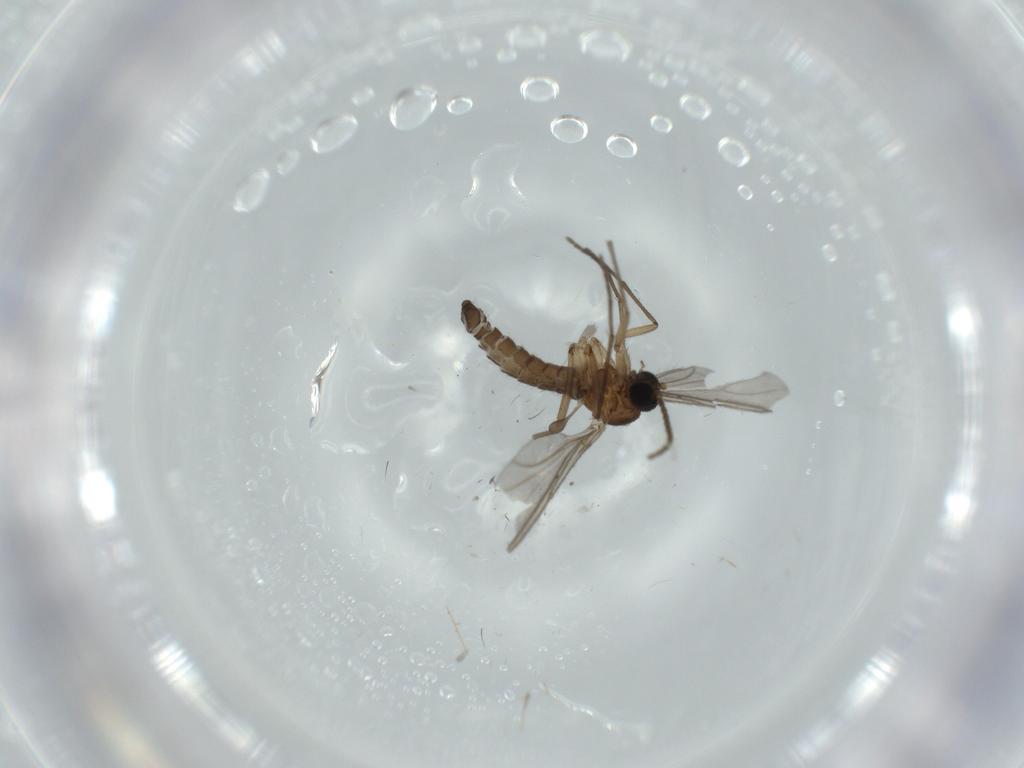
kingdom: Animalia
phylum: Arthropoda
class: Insecta
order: Diptera
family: Chironomidae
